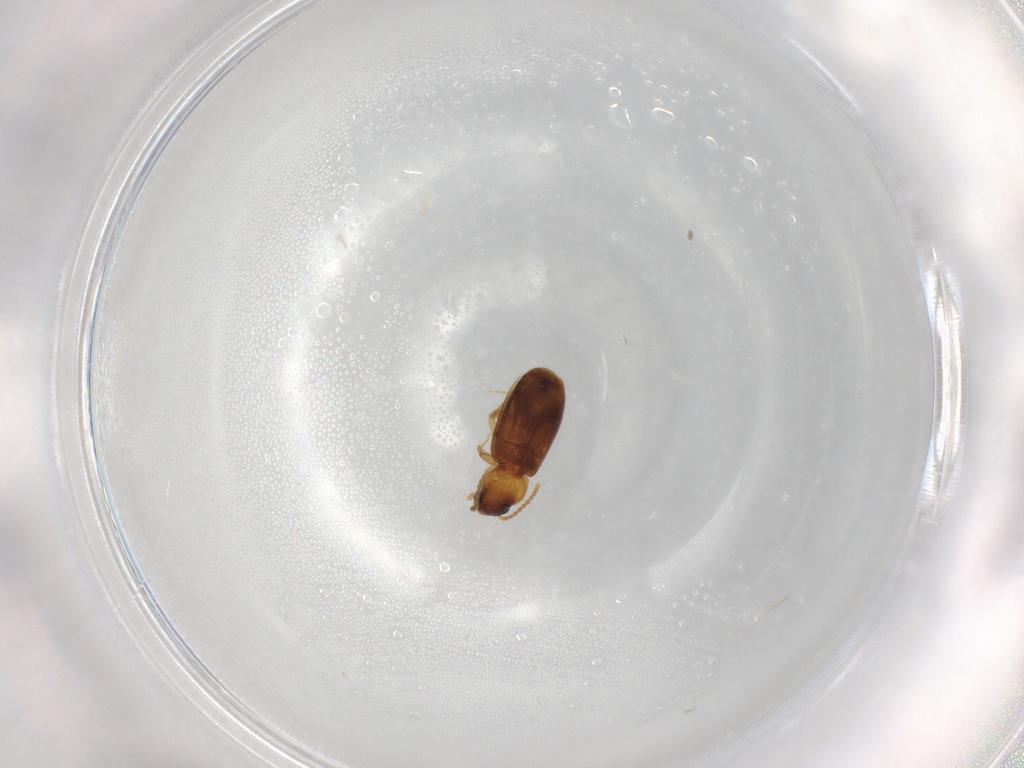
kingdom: Animalia
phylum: Arthropoda
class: Insecta
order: Coleoptera
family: Carabidae
